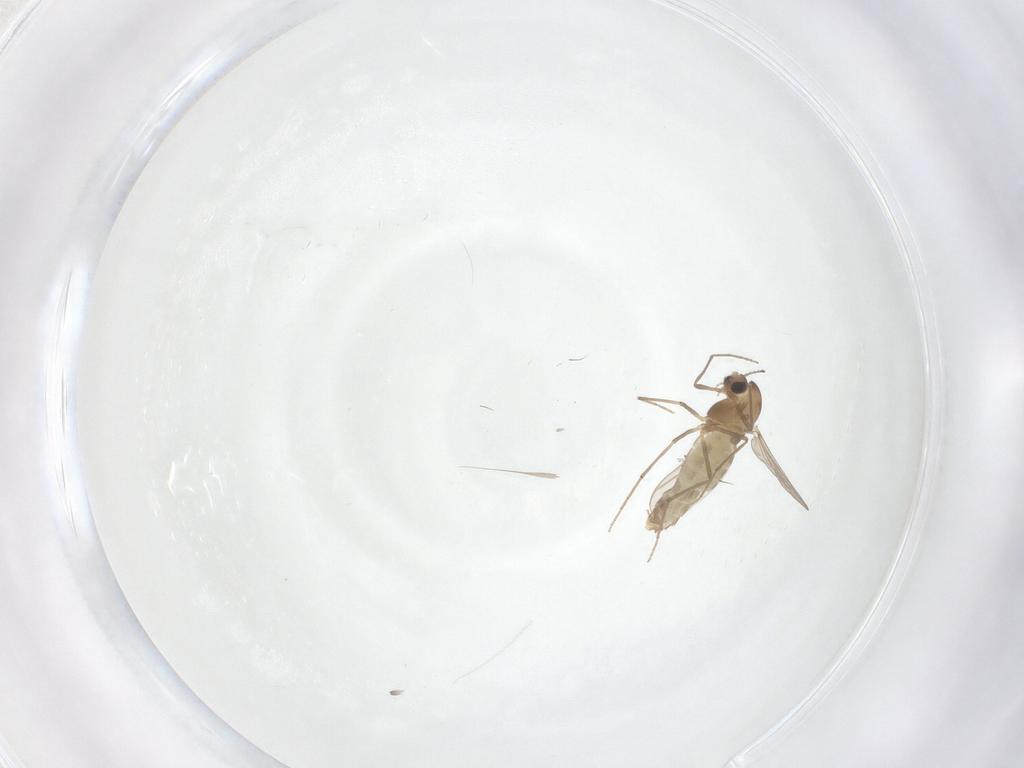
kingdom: Animalia
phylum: Arthropoda
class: Insecta
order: Diptera
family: Chironomidae
